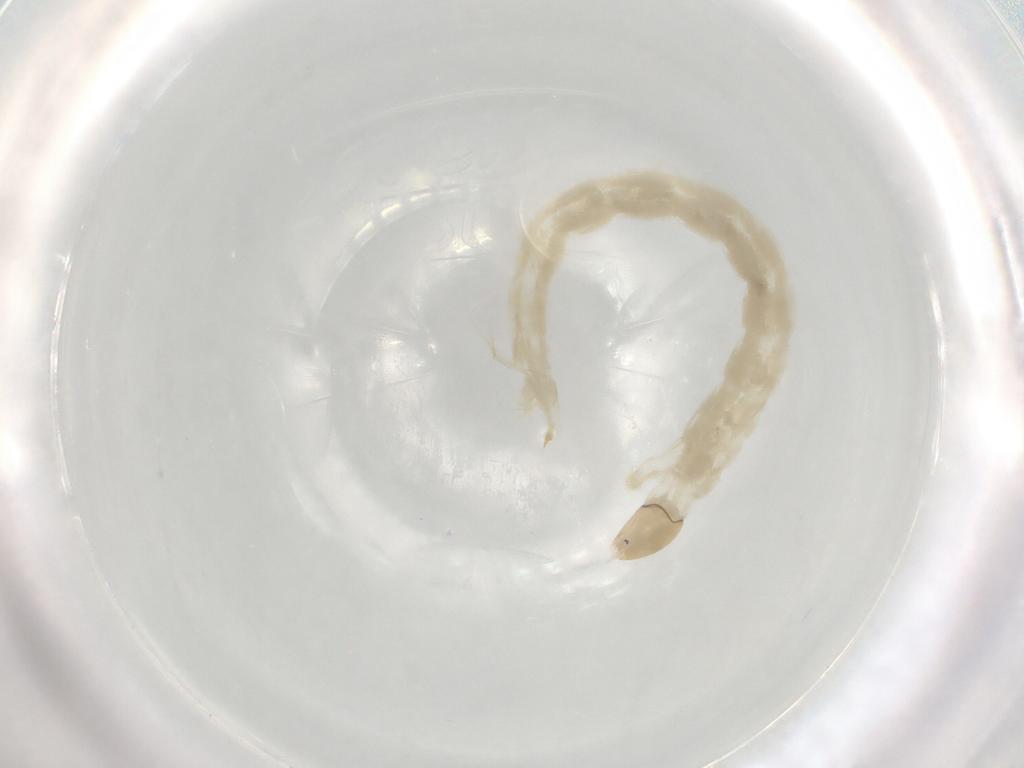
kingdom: Animalia
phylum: Arthropoda
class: Insecta
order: Diptera
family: Chironomidae
